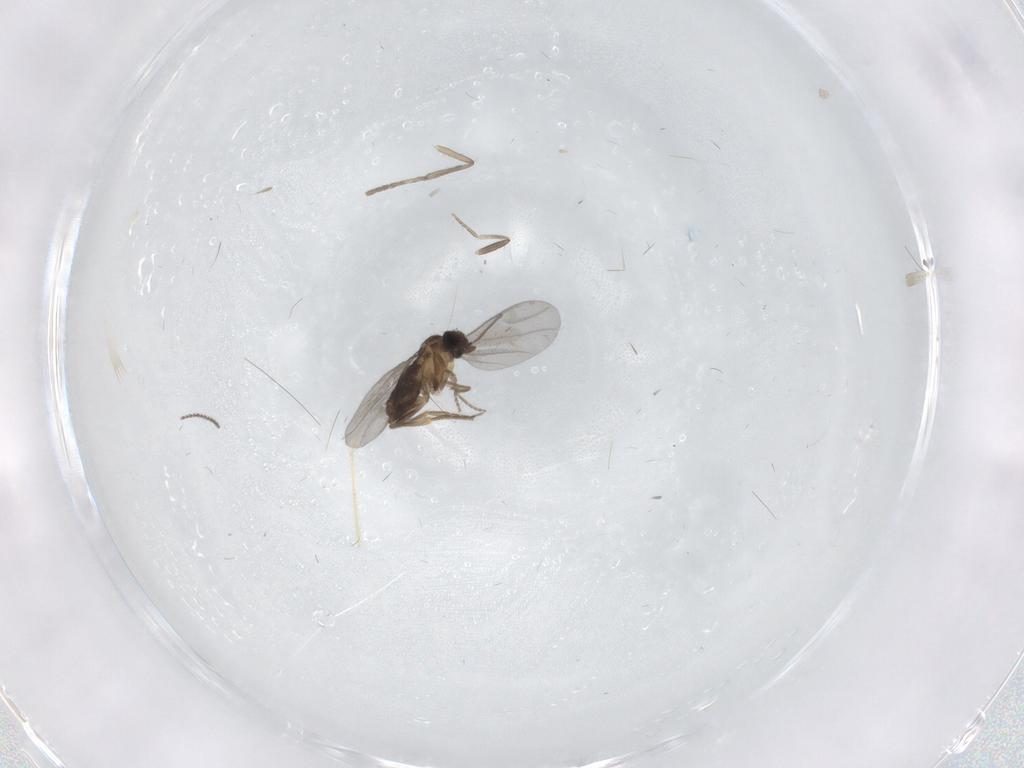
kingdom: Animalia
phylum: Arthropoda
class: Insecta
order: Diptera
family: Psychodidae
